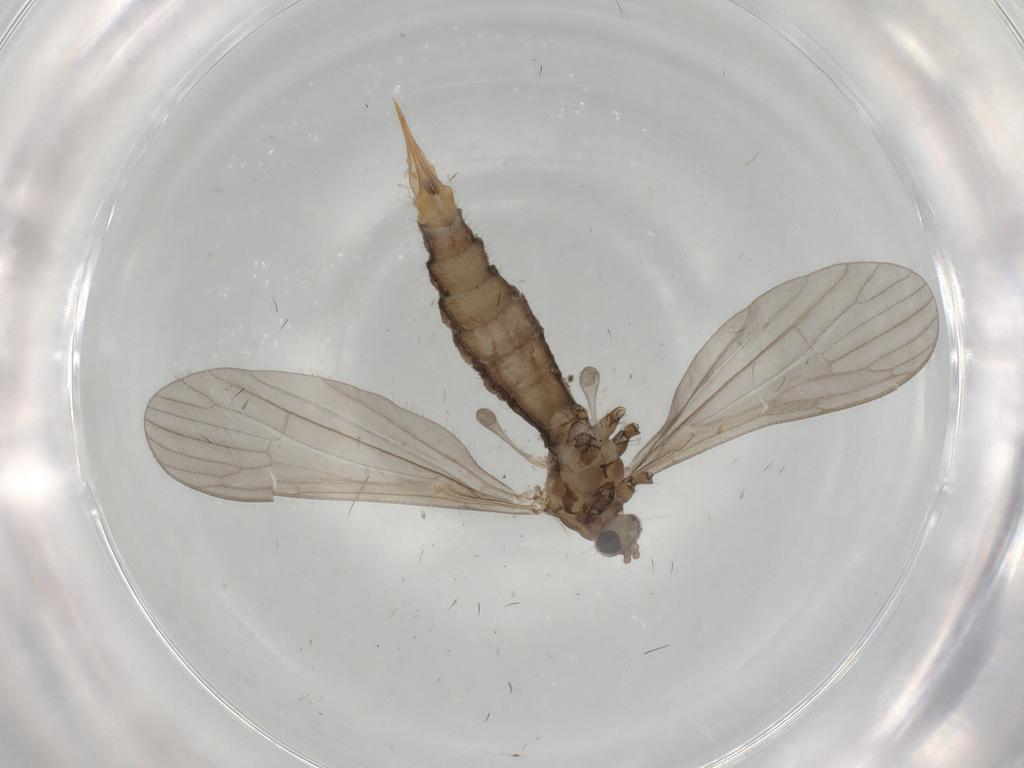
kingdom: Animalia
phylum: Arthropoda
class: Insecta
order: Diptera
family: Limoniidae
